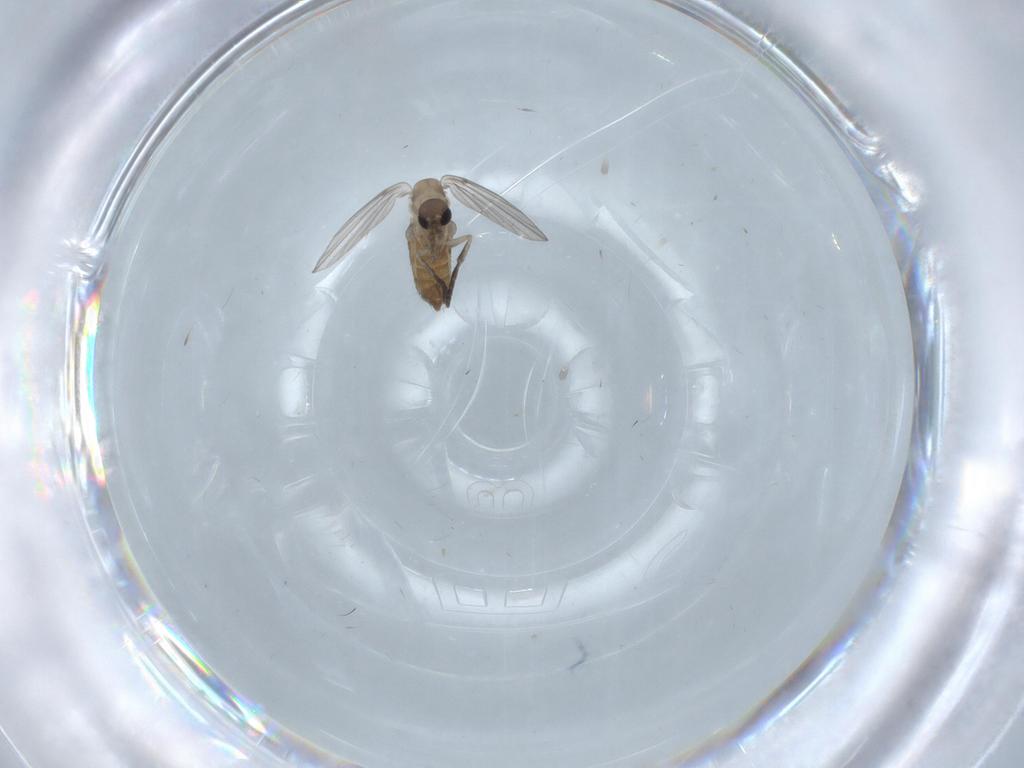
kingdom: Animalia
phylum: Arthropoda
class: Insecta
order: Diptera
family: Psychodidae
